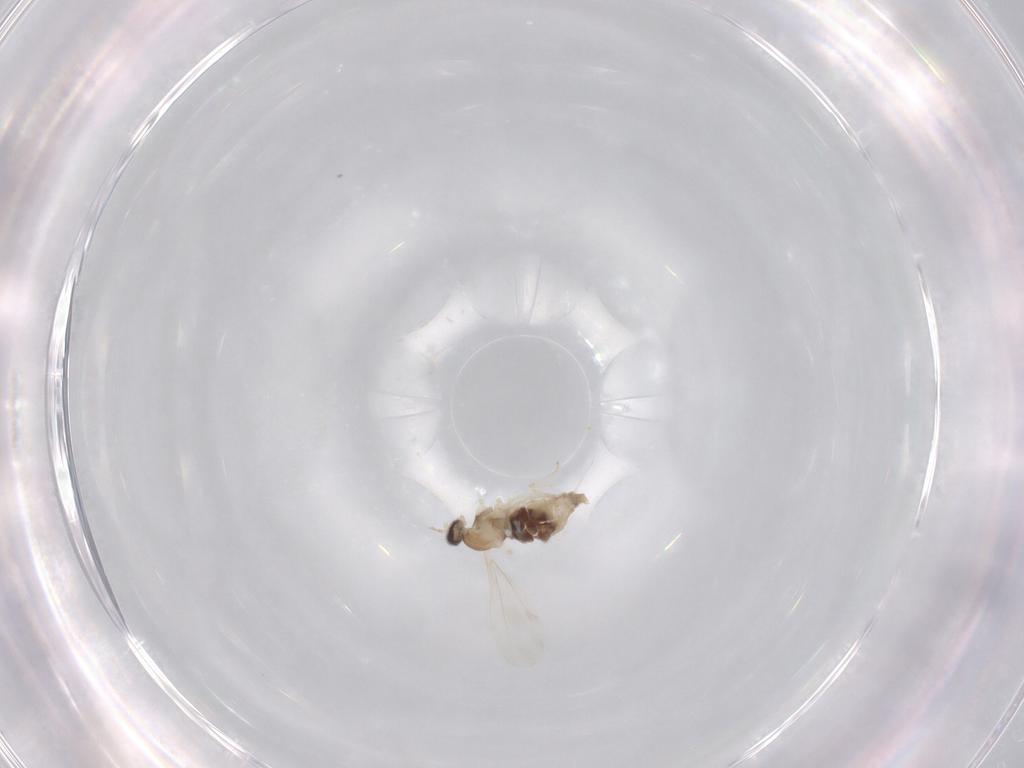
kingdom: Animalia
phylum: Arthropoda
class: Insecta
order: Diptera
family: Cecidomyiidae
